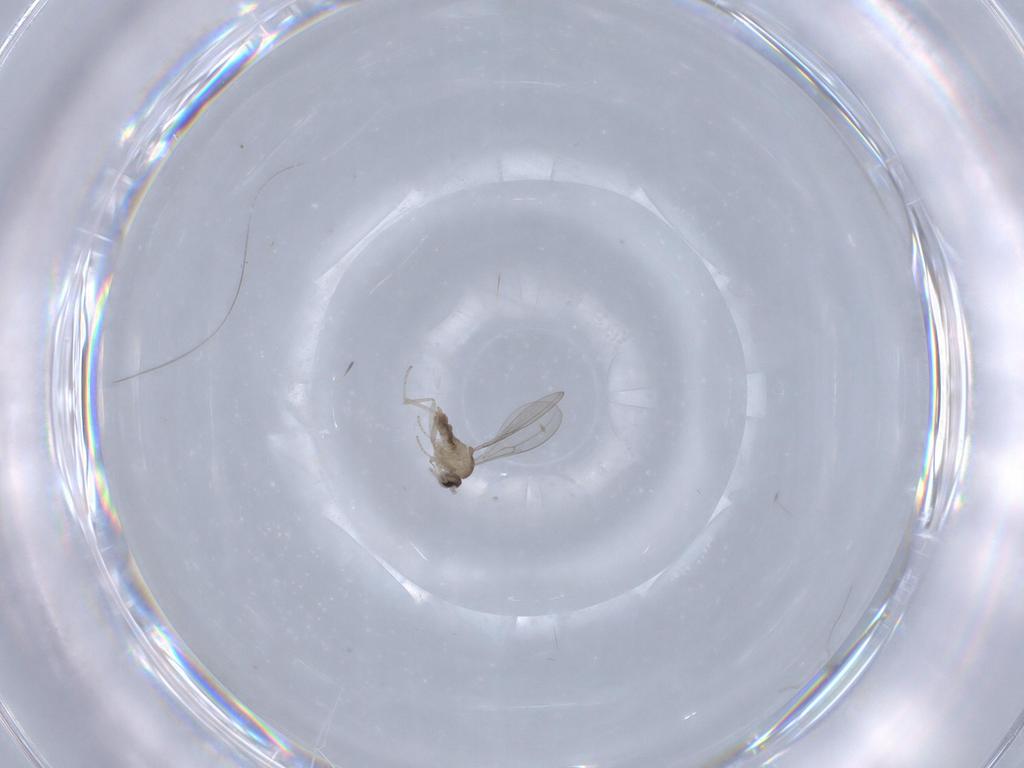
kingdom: Animalia
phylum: Arthropoda
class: Insecta
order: Diptera
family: Cecidomyiidae
